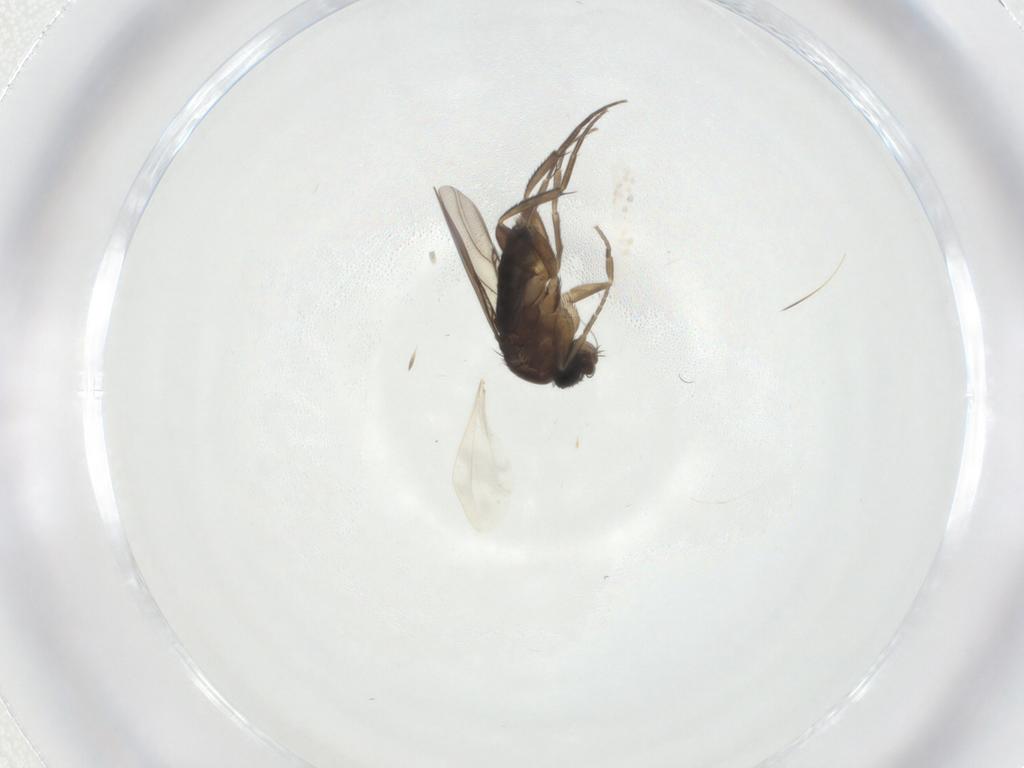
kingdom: Animalia
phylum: Arthropoda
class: Insecta
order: Diptera
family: Phoridae
